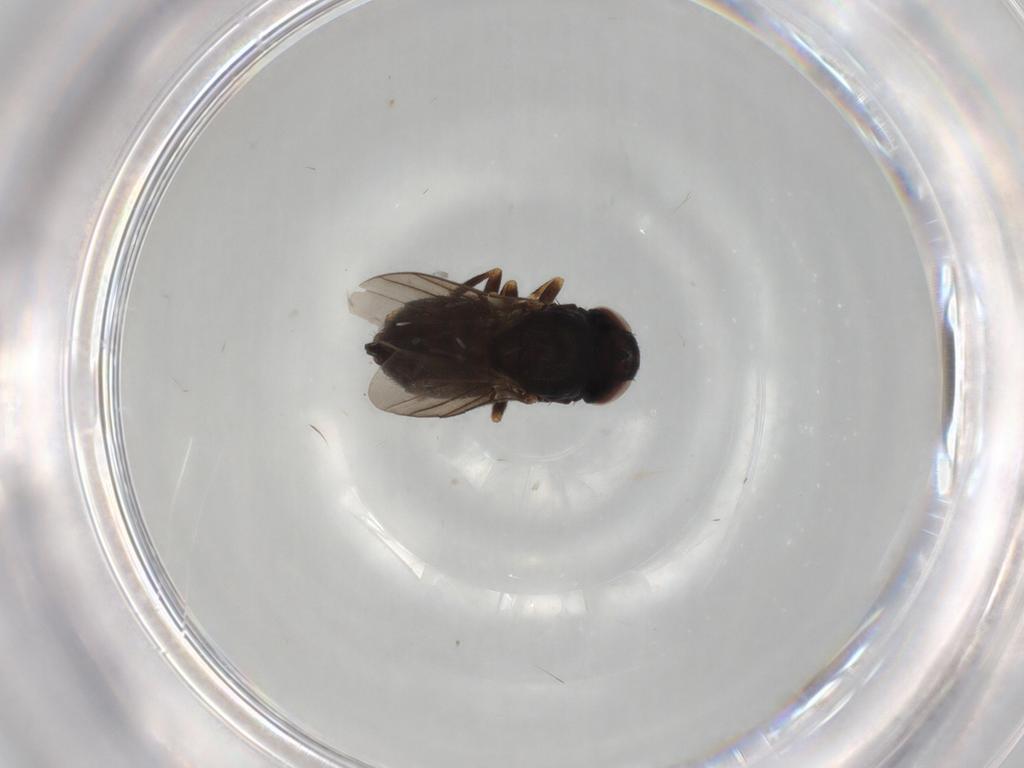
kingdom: Animalia
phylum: Arthropoda
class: Insecta
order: Diptera
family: Chloropidae
